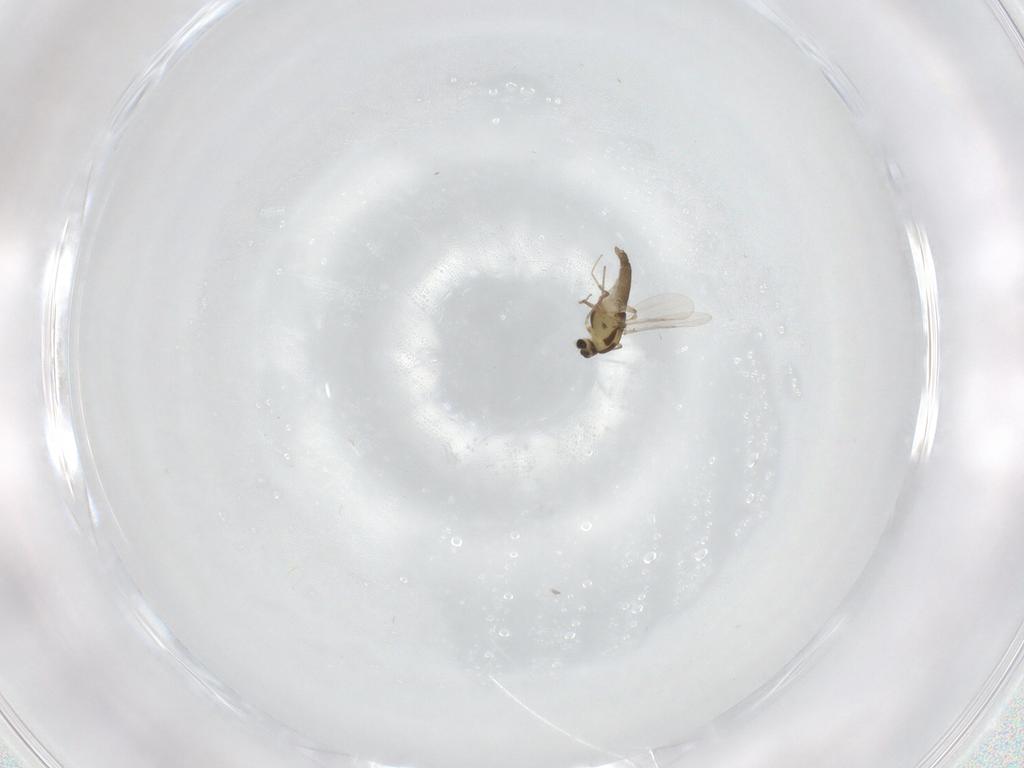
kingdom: Animalia
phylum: Arthropoda
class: Insecta
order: Diptera
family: Chironomidae
